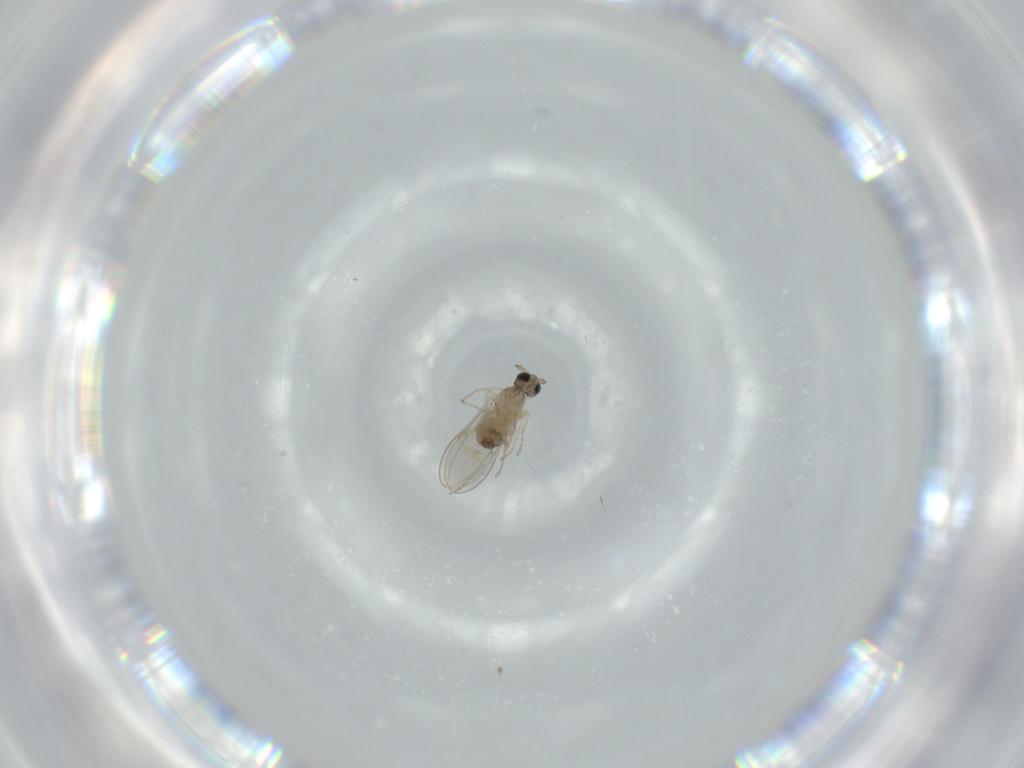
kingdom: Animalia
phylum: Arthropoda
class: Insecta
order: Diptera
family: Cecidomyiidae
